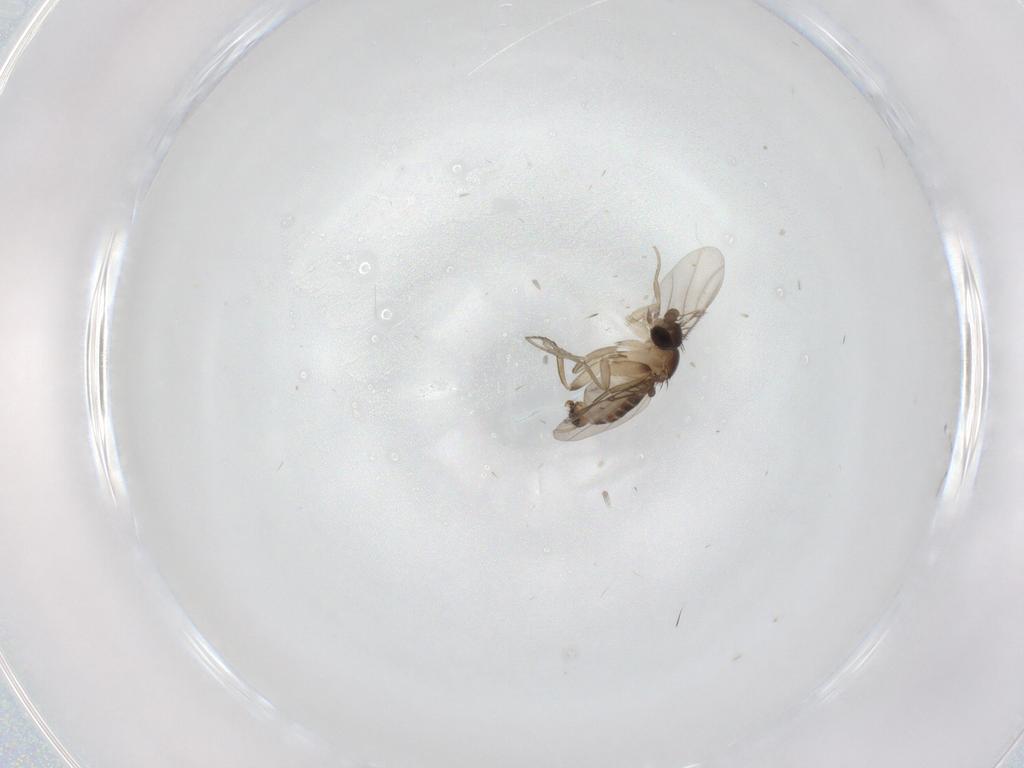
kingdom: Animalia
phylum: Arthropoda
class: Insecta
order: Diptera
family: Phoridae
